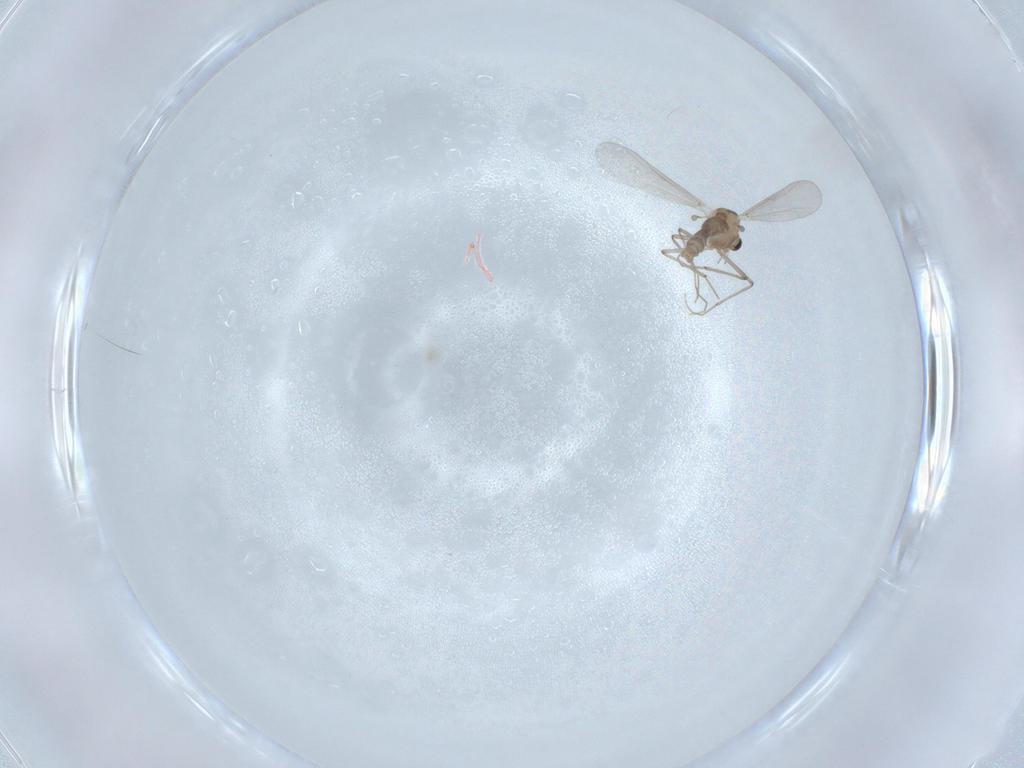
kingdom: Animalia
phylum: Arthropoda
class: Insecta
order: Diptera
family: Chironomidae
